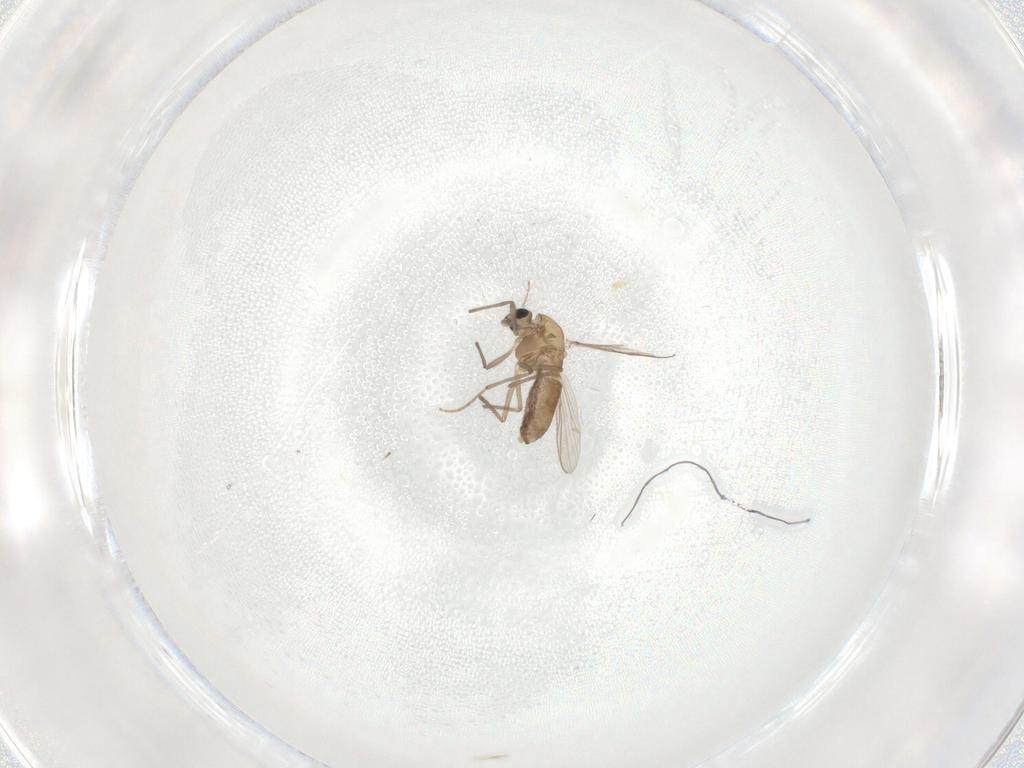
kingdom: Animalia
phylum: Arthropoda
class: Insecta
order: Diptera
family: Chironomidae
